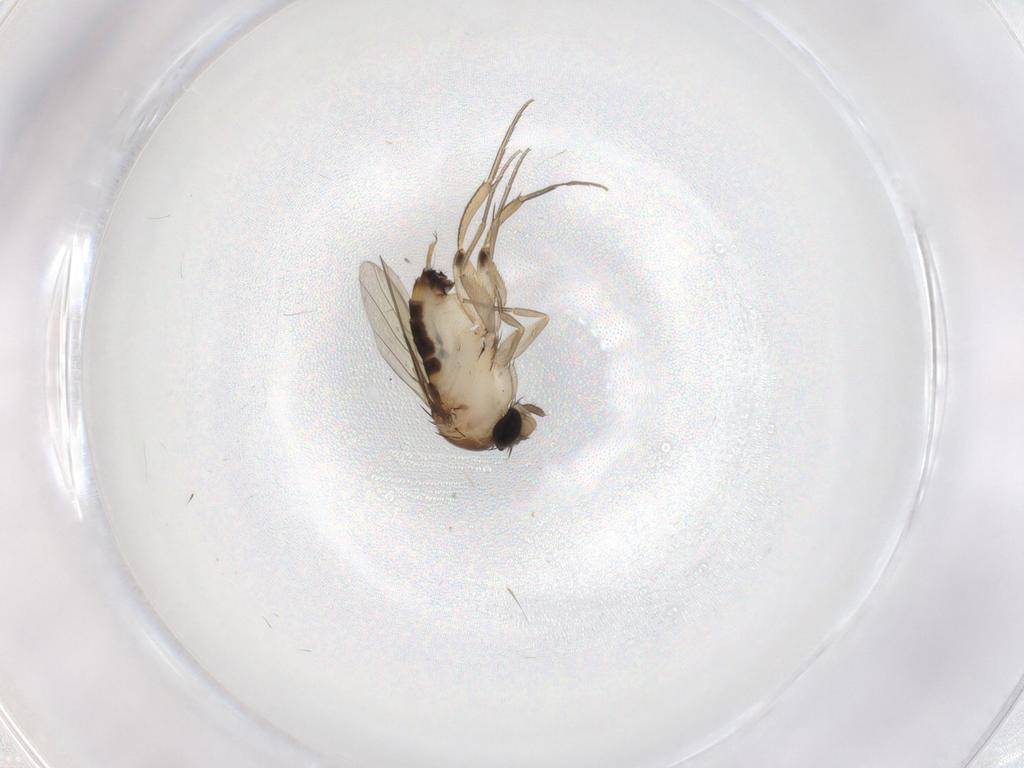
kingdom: Animalia
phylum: Arthropoda
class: Insecta
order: Diptera
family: Phoridae
